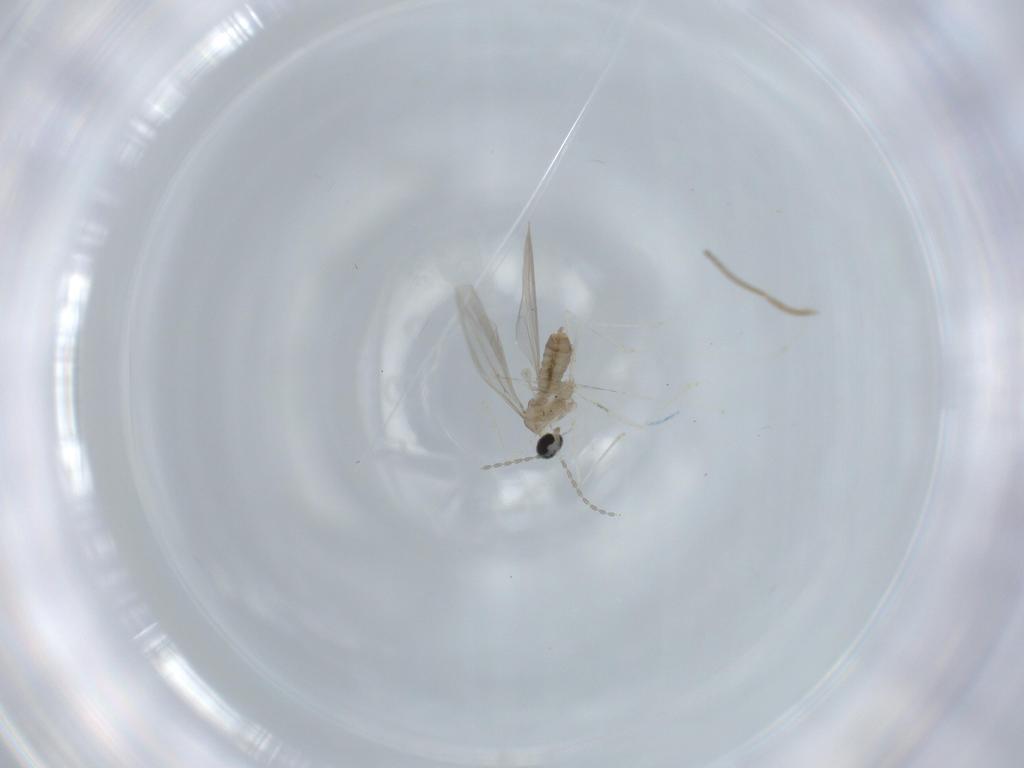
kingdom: Animalia
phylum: Arthropoda
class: Insecta
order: Diptera
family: Cecidomyiidae
